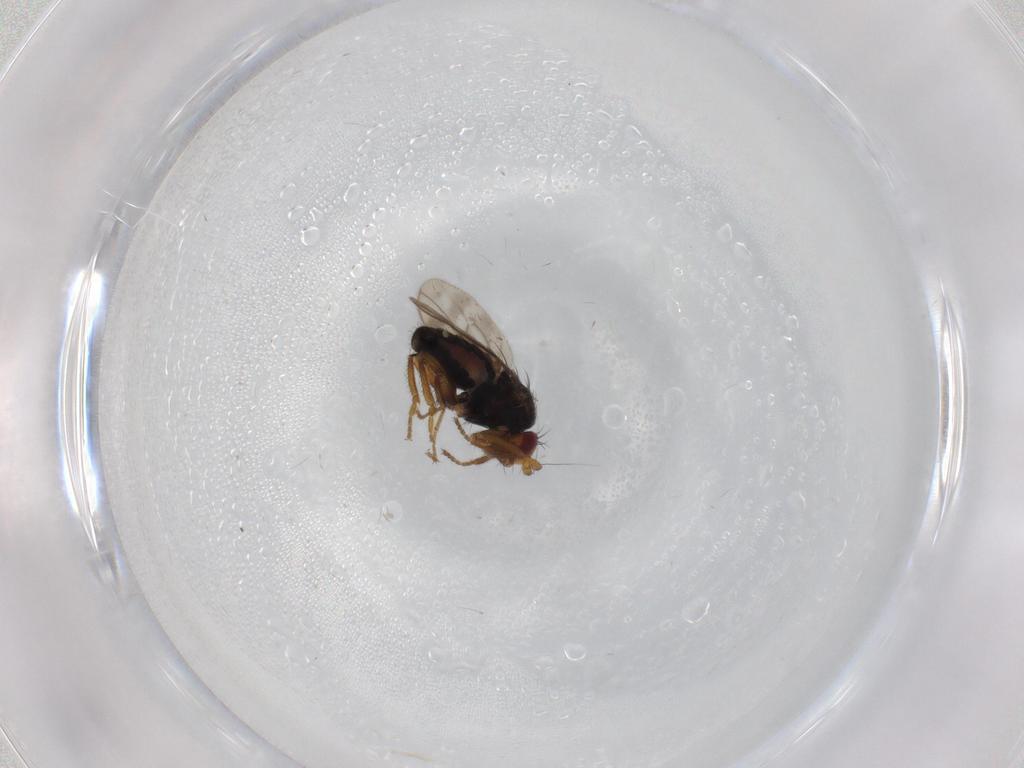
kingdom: Animalia
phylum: Arthropoda
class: Insecta
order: Diptera
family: Sphaeroceridae
